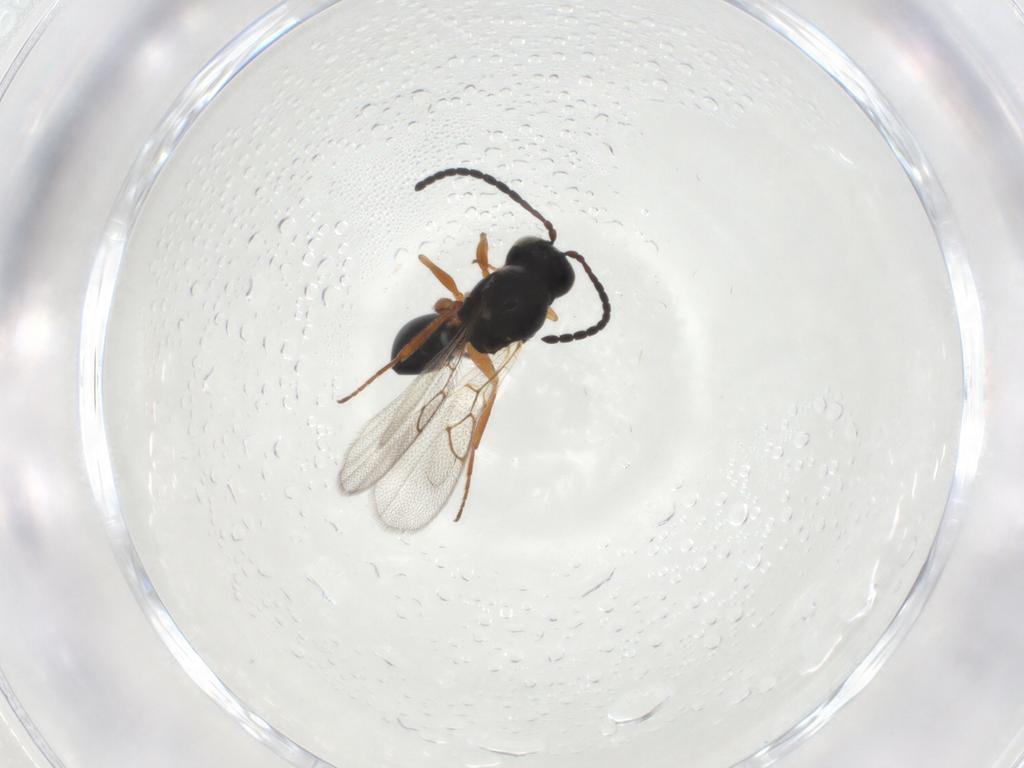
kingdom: Animalia
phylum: Arthropoda
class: Insecta
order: Hymenoptera
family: Figitidae
